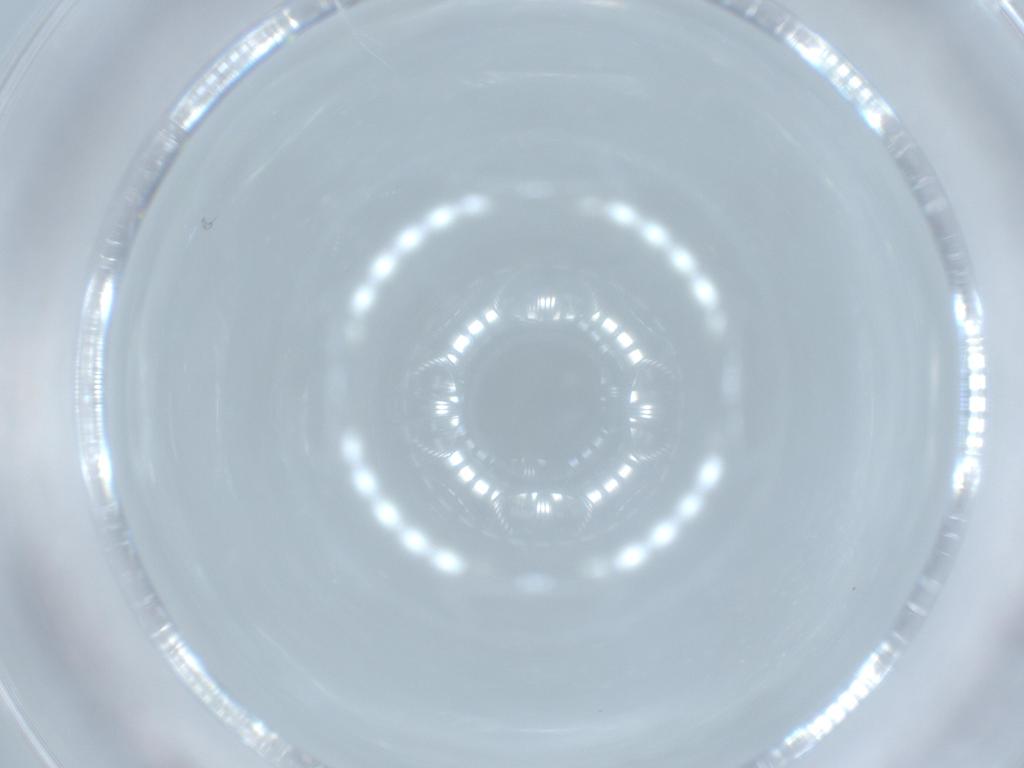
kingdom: Animalia
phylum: Arthropoda
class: Insecta
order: Lepidoptera
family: Gracillariidae
